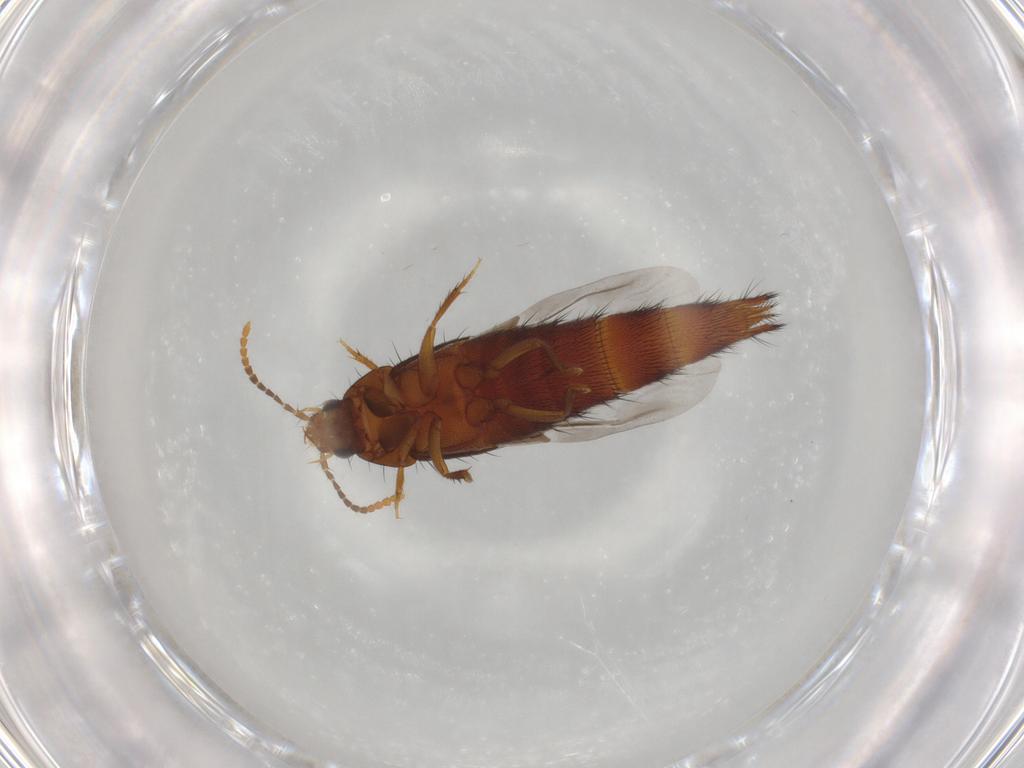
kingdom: Animalia
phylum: Arthropoda
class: Insecta
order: Coleoptera
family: Staphylinidae
